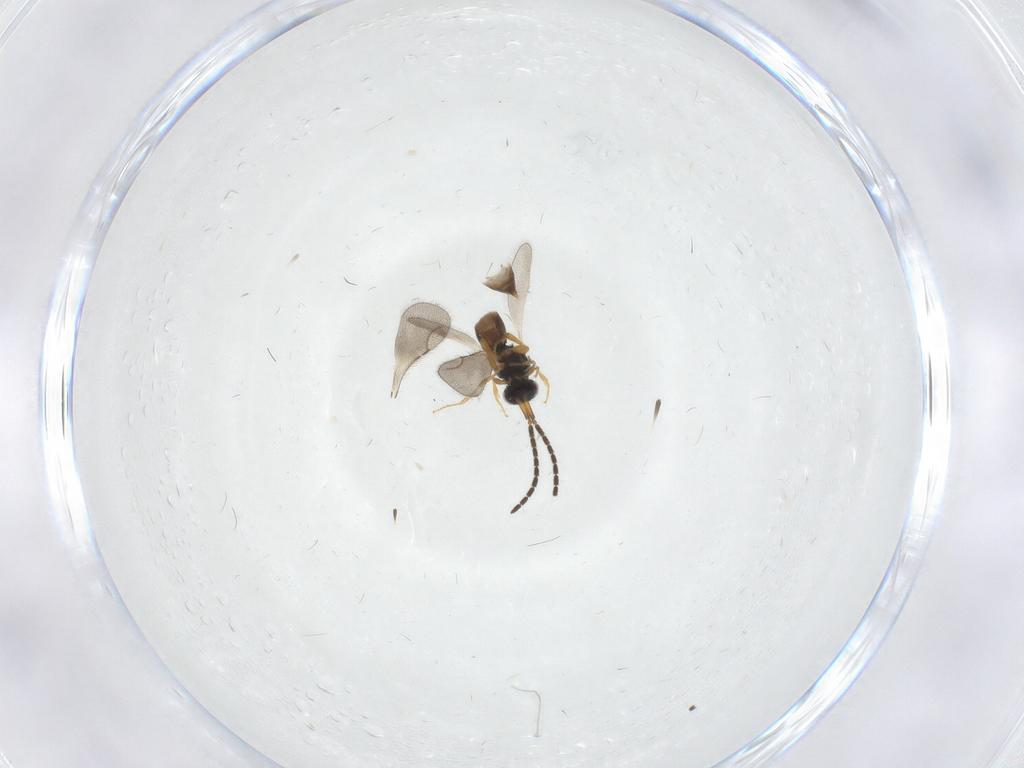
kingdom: Animalia
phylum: Arthropoda
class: Insecta
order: Hymenoptera
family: Ceraphronidae
